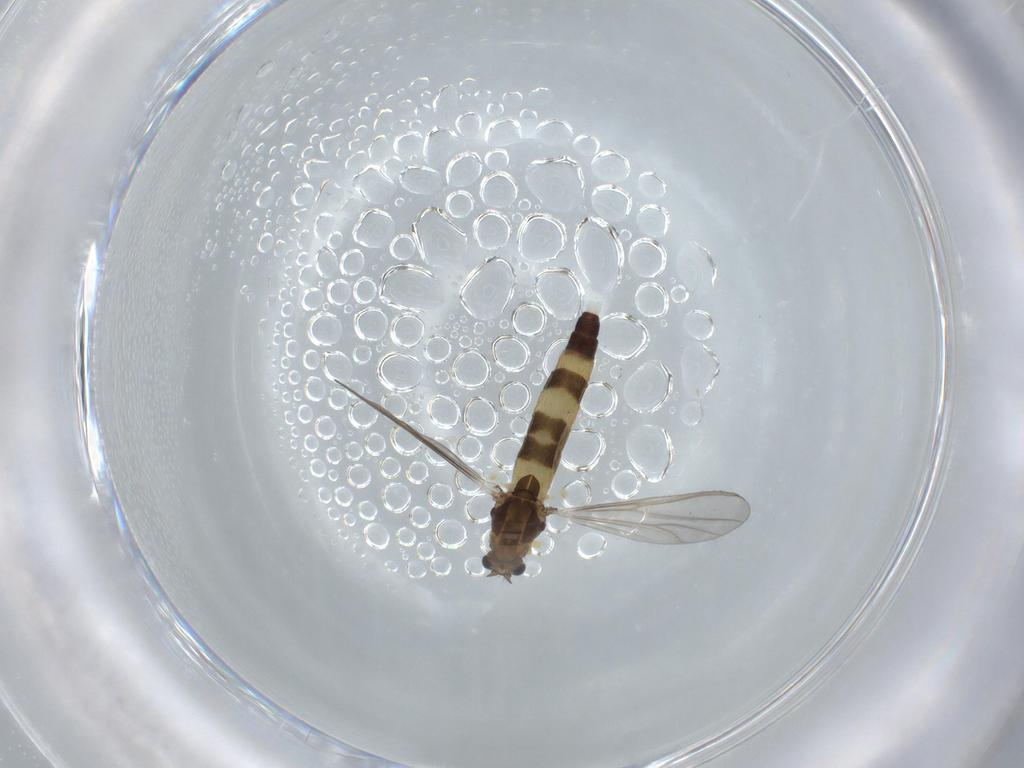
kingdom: Animalia
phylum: Arthropoda
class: Insecta
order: Diptera
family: Chironomidae
